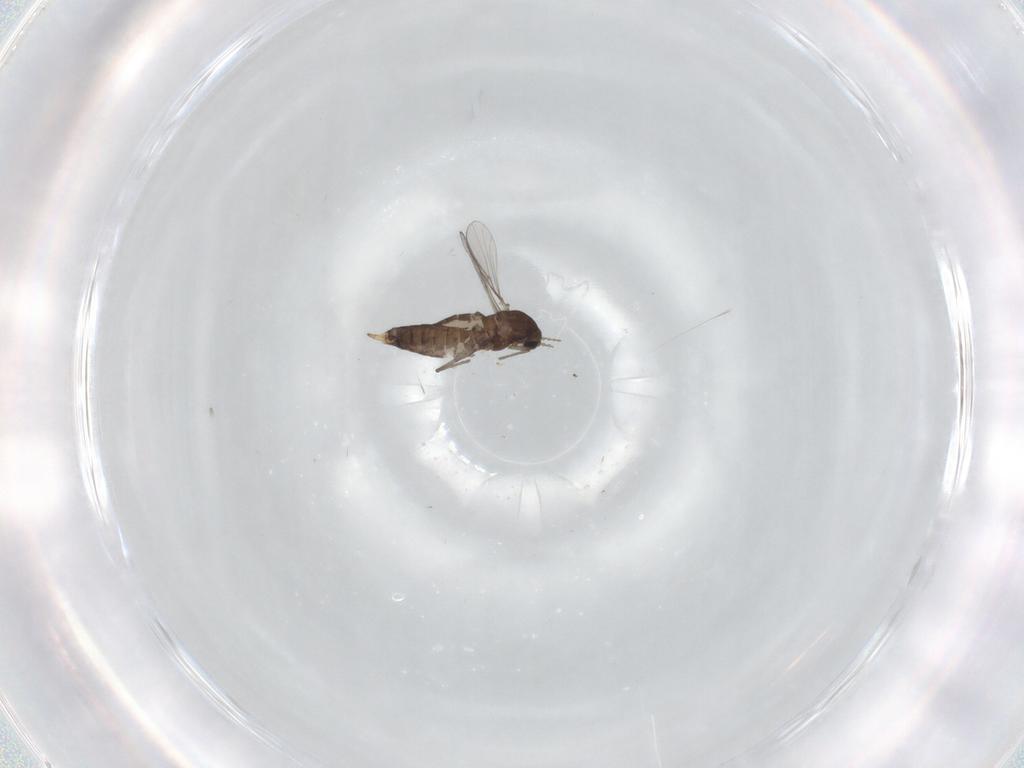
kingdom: Animalia
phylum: Arthropoda
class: Insecta
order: Diptera
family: Chironomidae
